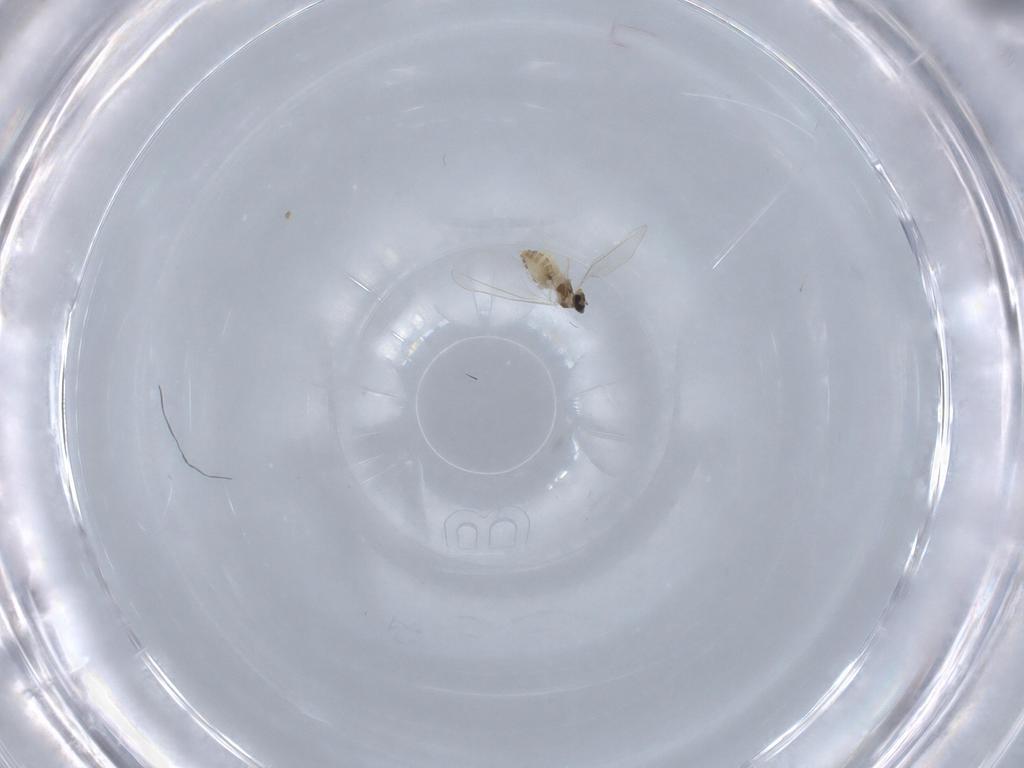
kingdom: Animalia
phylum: Arthropoda
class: Insecta
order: Diptera
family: Cecidomyiidae
